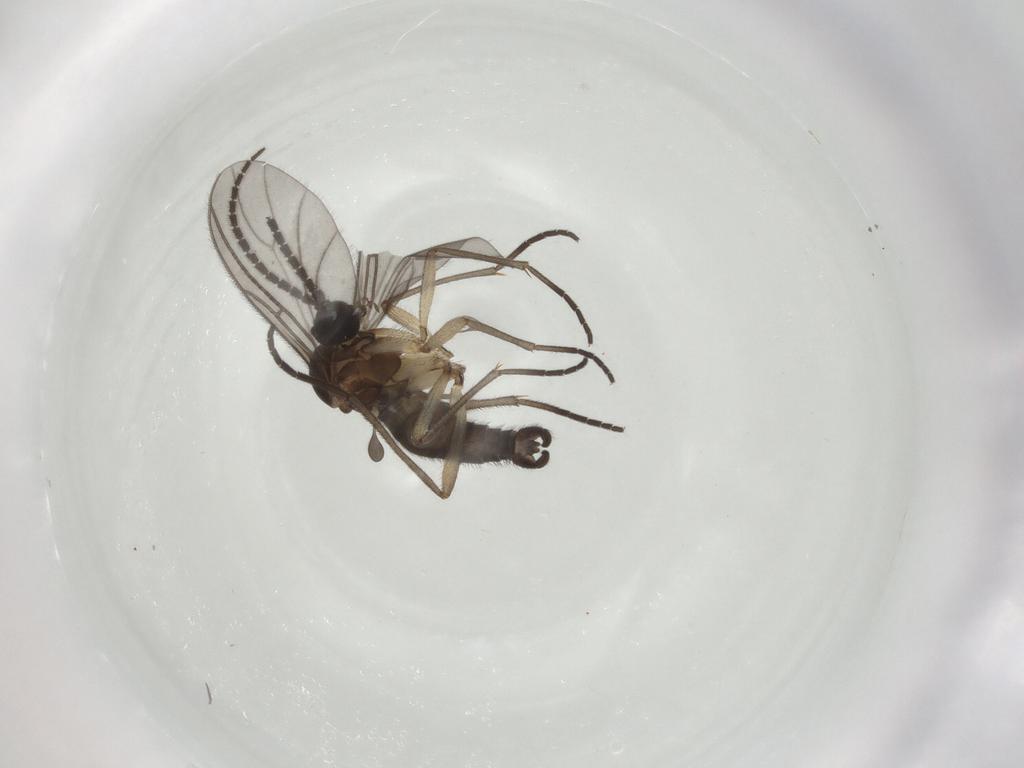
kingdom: Animalia
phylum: Arthropoda
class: Insecta
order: Diptera
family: Sciaridae
